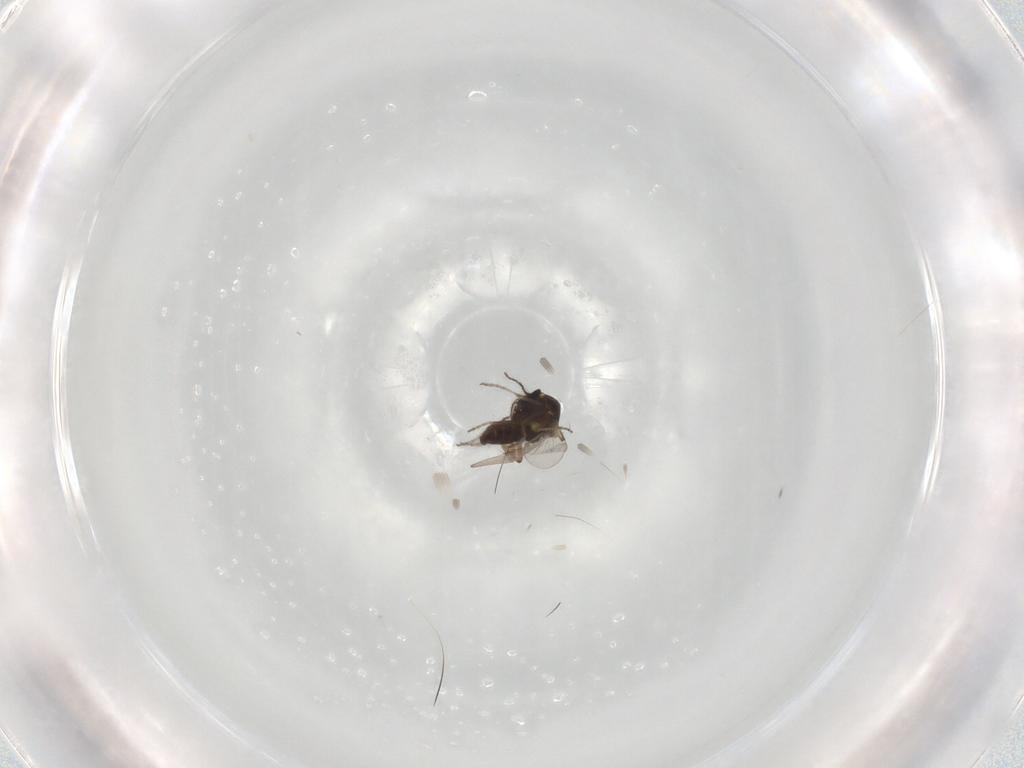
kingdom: Animalia
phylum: Arthropoda
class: Insecta
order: Diptera
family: Ceratopogonidae
